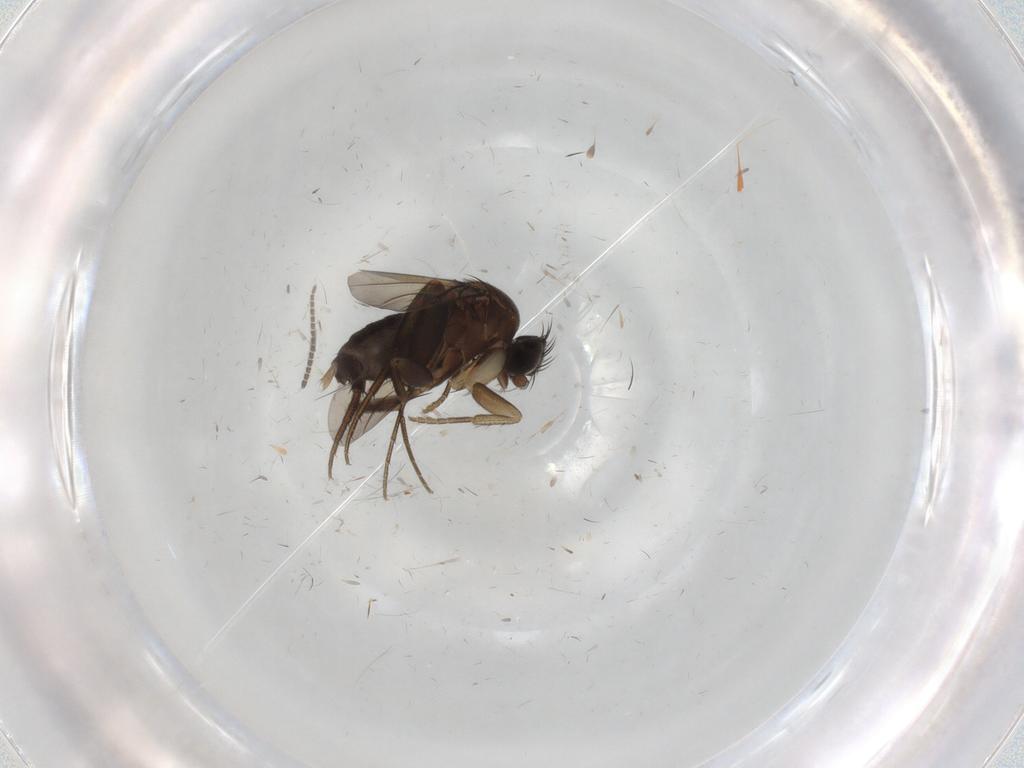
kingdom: Animalia
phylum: Arthropoda
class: Insecta
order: Diptera
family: Sciaridae
